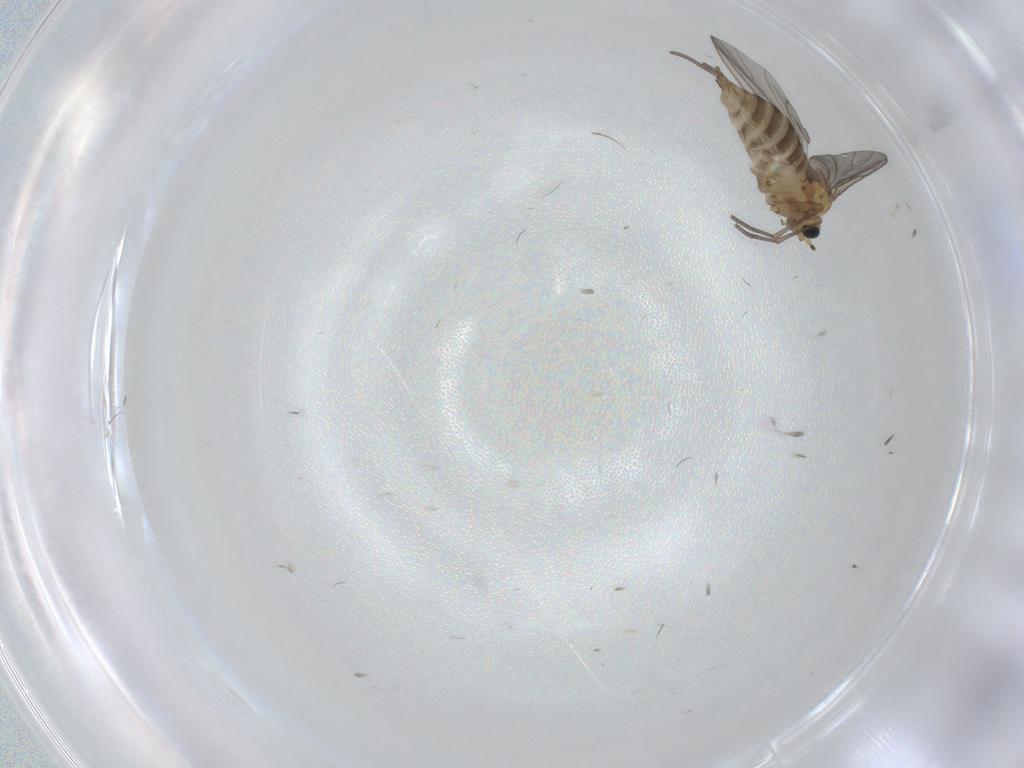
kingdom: Animalia
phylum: Arthropoda
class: Insecta
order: Diptera
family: Sciaridae
